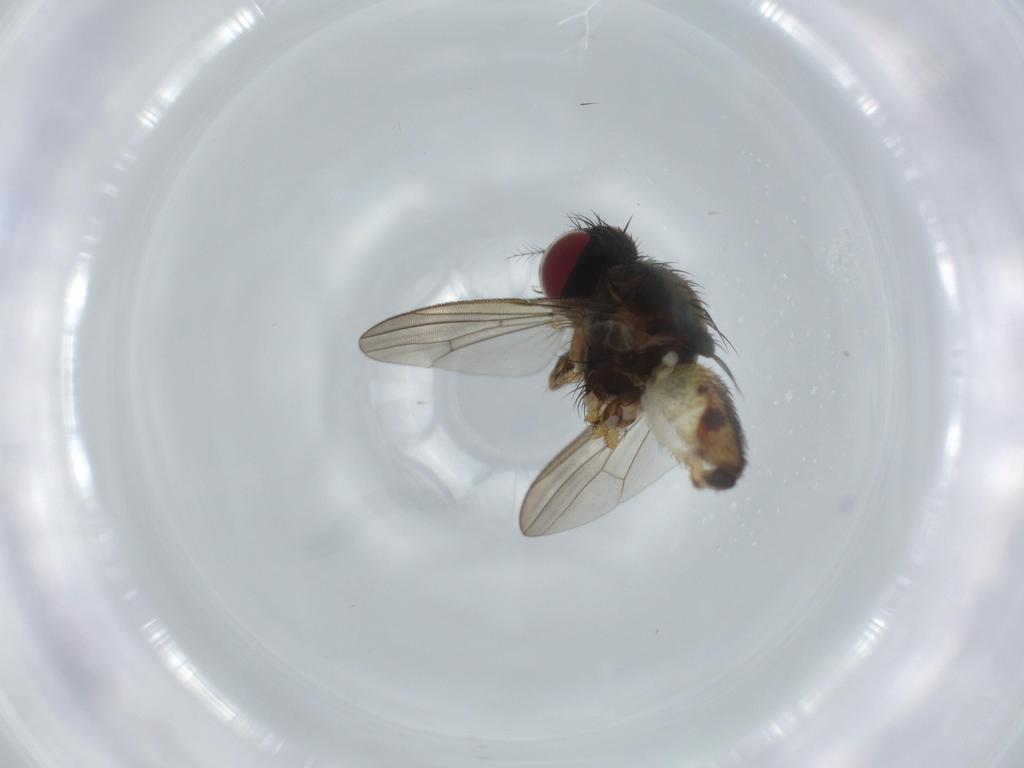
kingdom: Animalia
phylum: Arthropoda
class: Insecta
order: Diptera
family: Anthomyiidae
